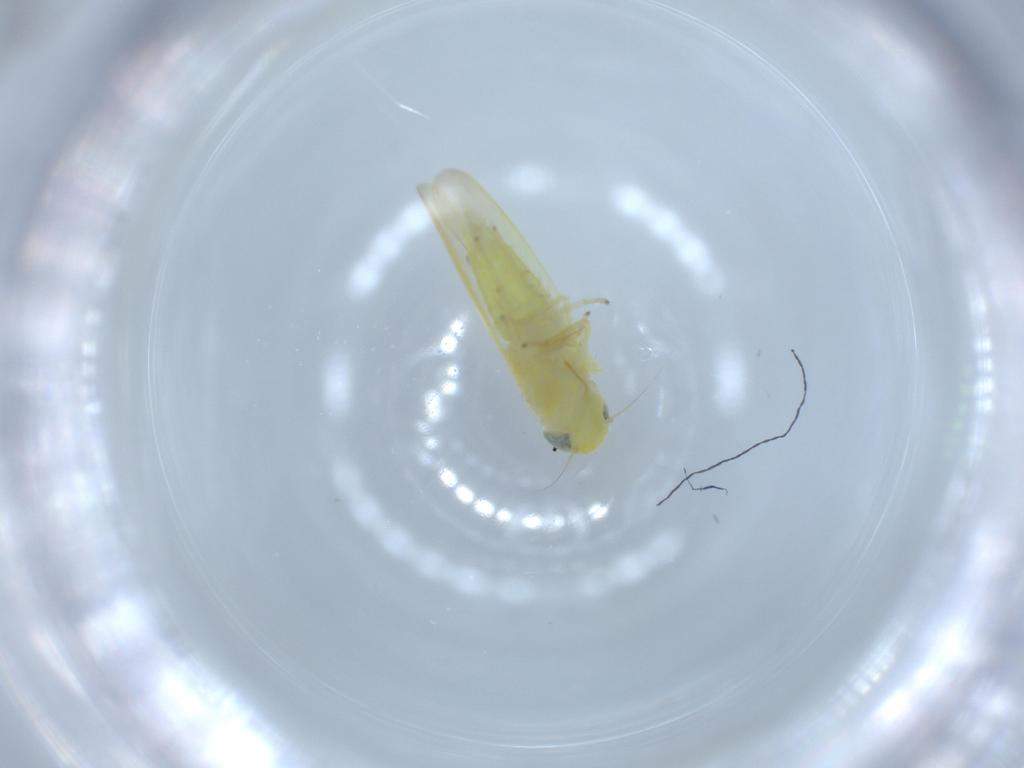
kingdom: Animalia
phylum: Arthropoda
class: Insecta
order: Hemiptera
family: Cicadellidae
